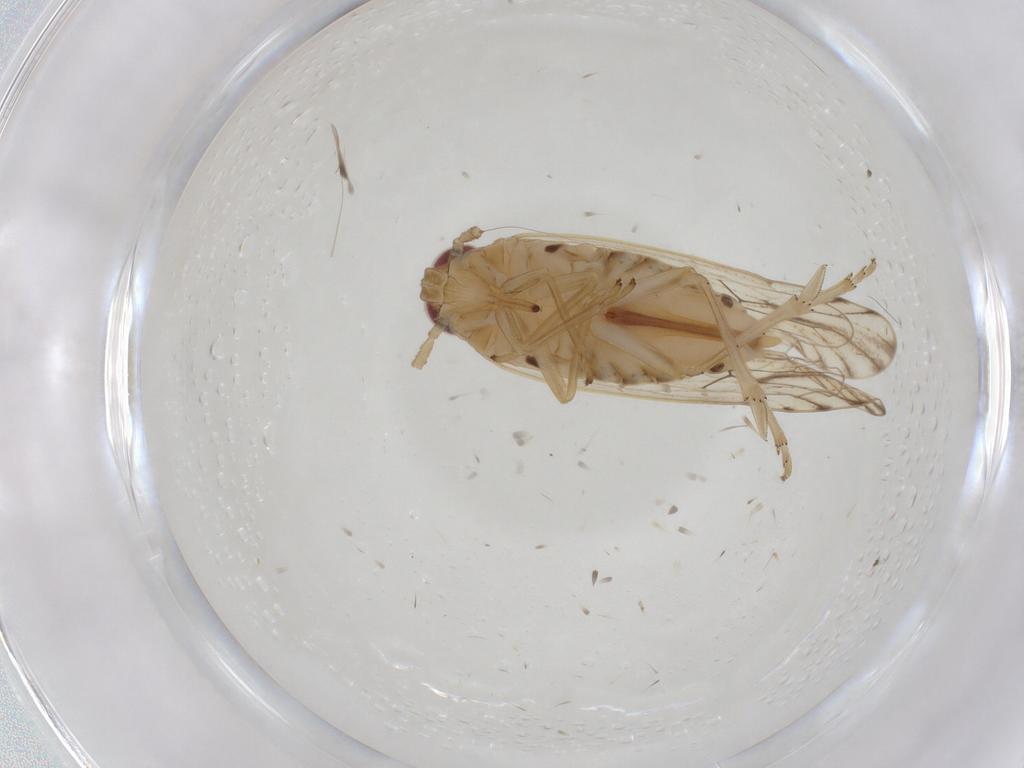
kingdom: Animalia
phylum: Arthropoda
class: Insecta
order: Hemiptera
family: Delphacidae
